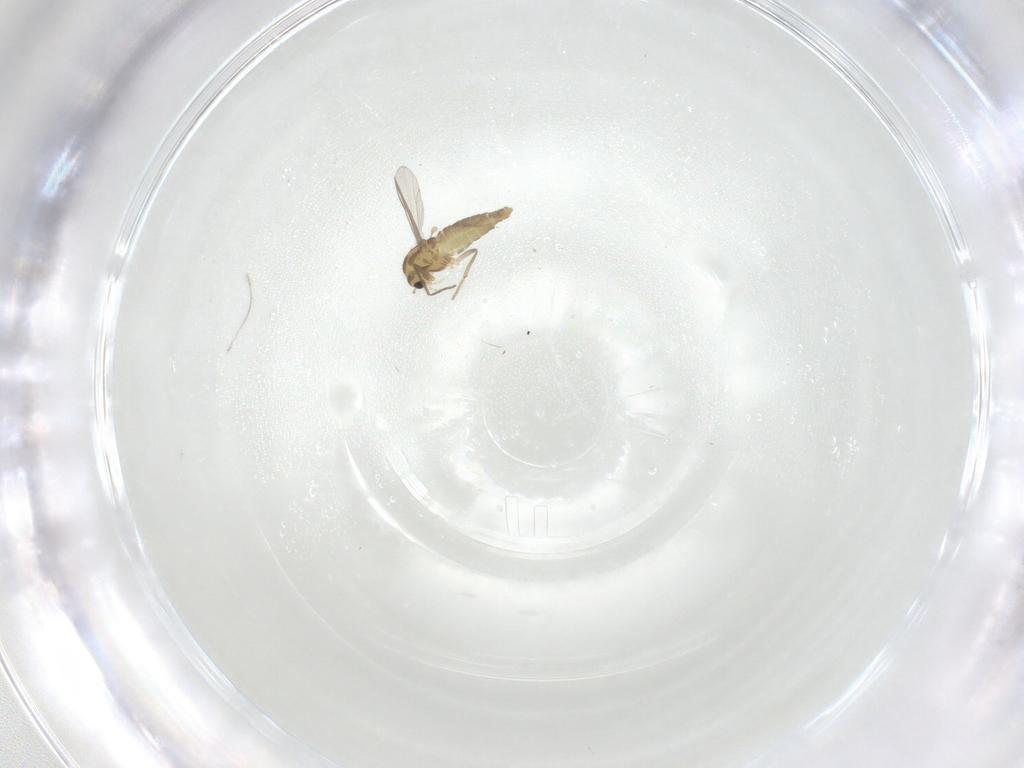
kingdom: Animalia
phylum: Arthropoda
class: Insecta
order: Diptera
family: Chironomidae
